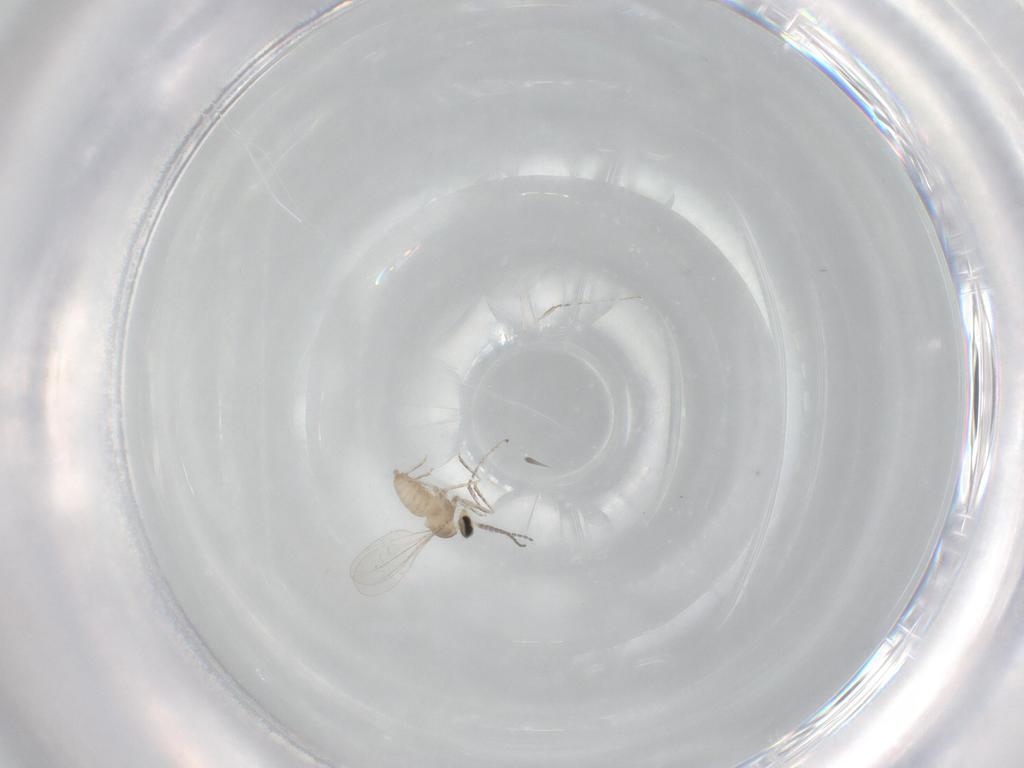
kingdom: Animalia
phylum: Arthropoda
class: Insecta
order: Diptera
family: Cecidomyiidae
